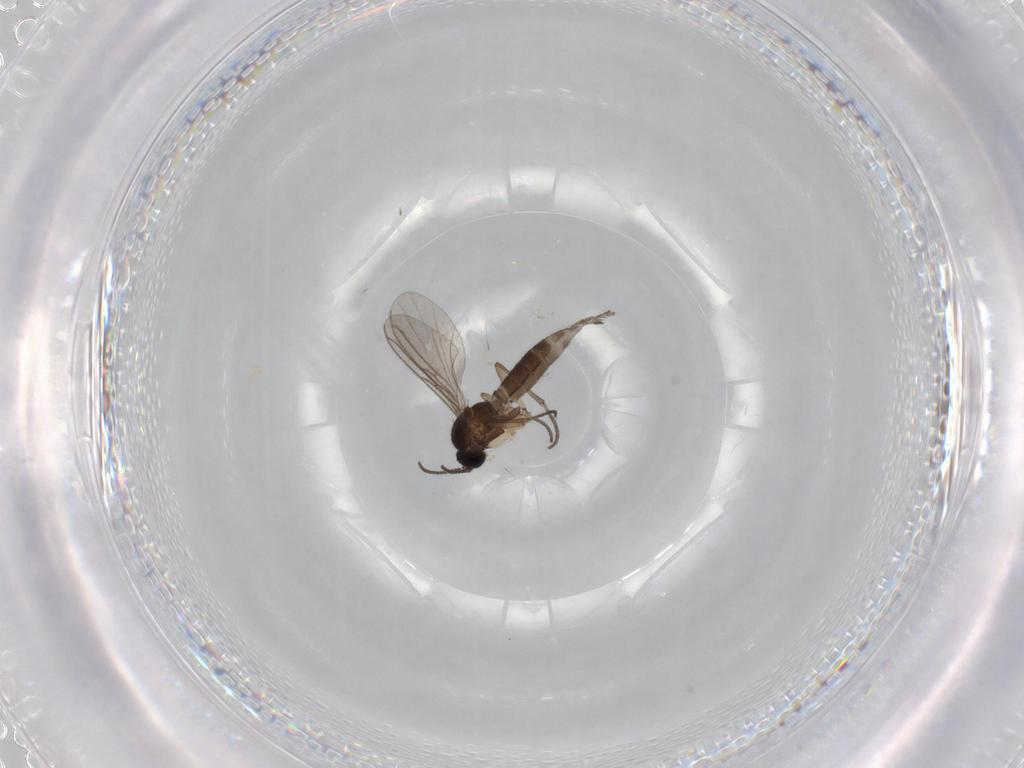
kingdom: Animalia
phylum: Arthropoda
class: Insecta
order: Diptera
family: Sciaridae
